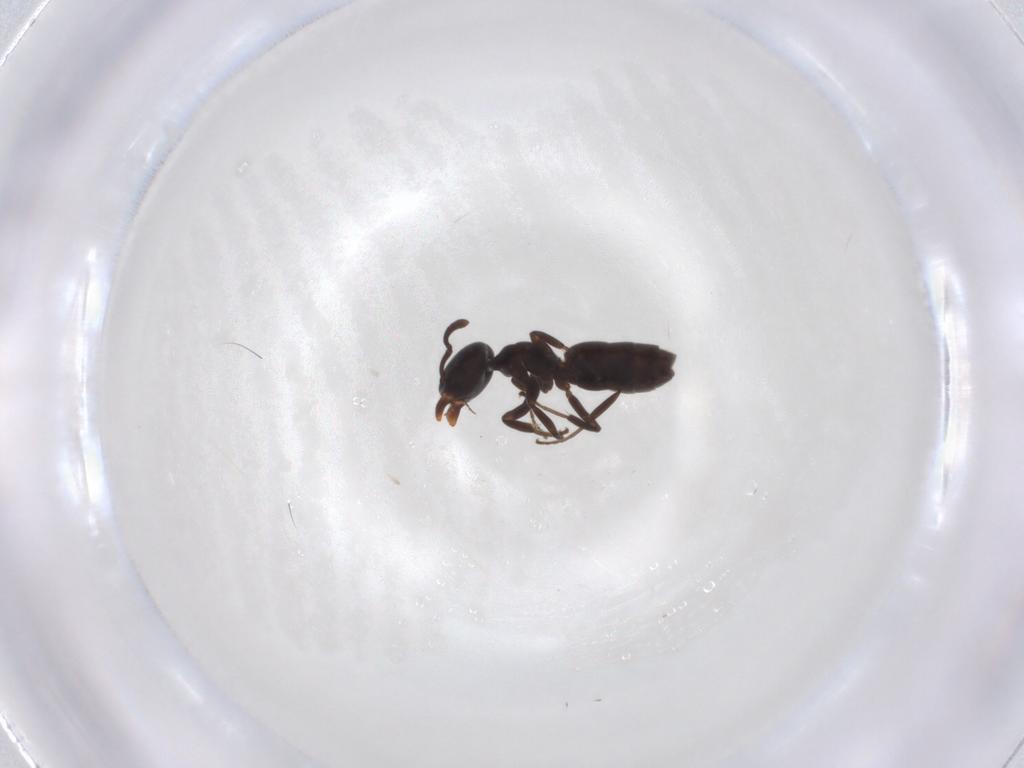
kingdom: Animalia
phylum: Arthropoda
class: Insecta
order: Hymenoptera
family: Formicidae
